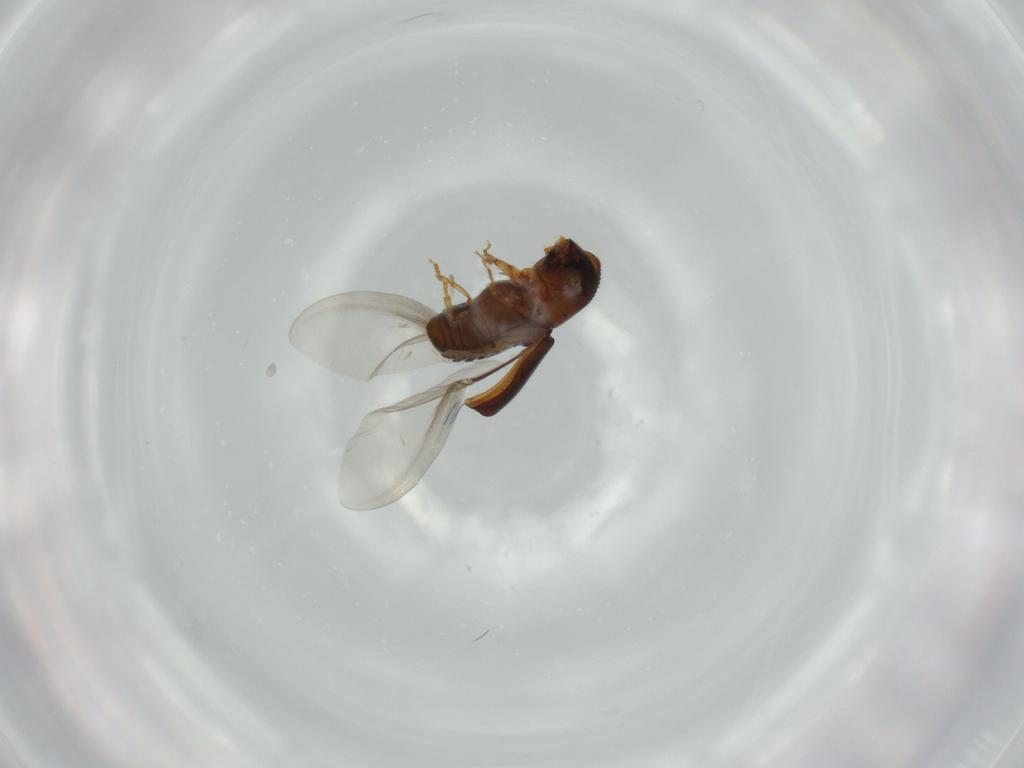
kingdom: Animalia
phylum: Arthropoda
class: Insecta
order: Coleoptera
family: Curculionidae
